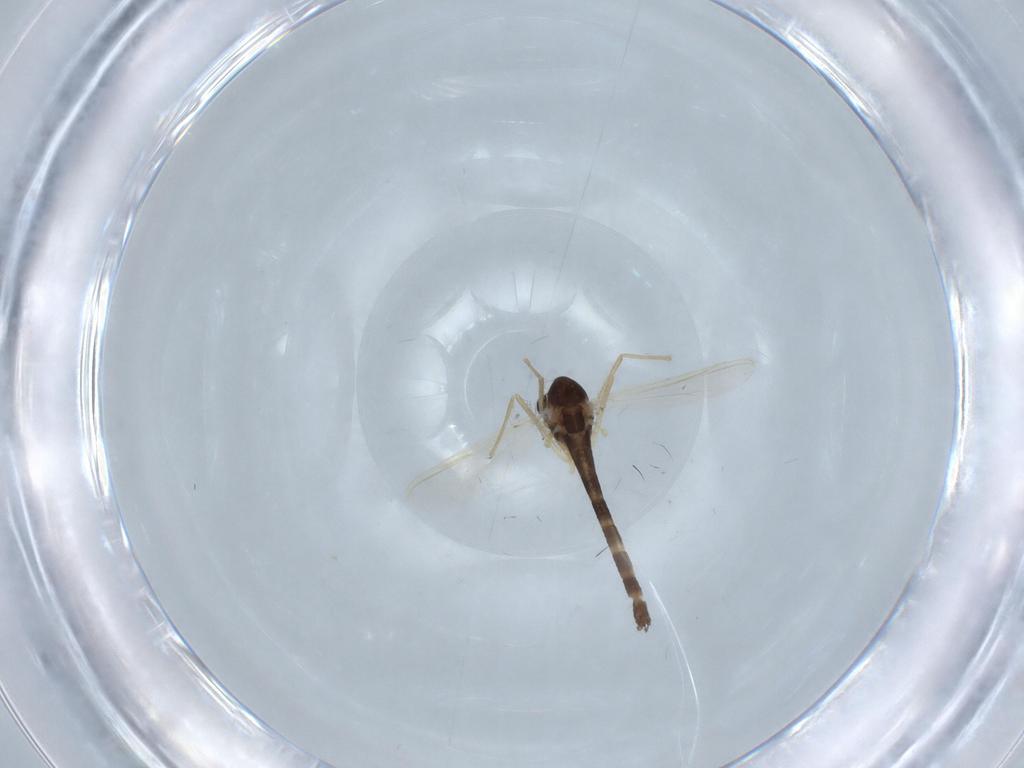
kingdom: Animalia
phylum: Arthropoda
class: Insecta
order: Diptera
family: Chironomidae
